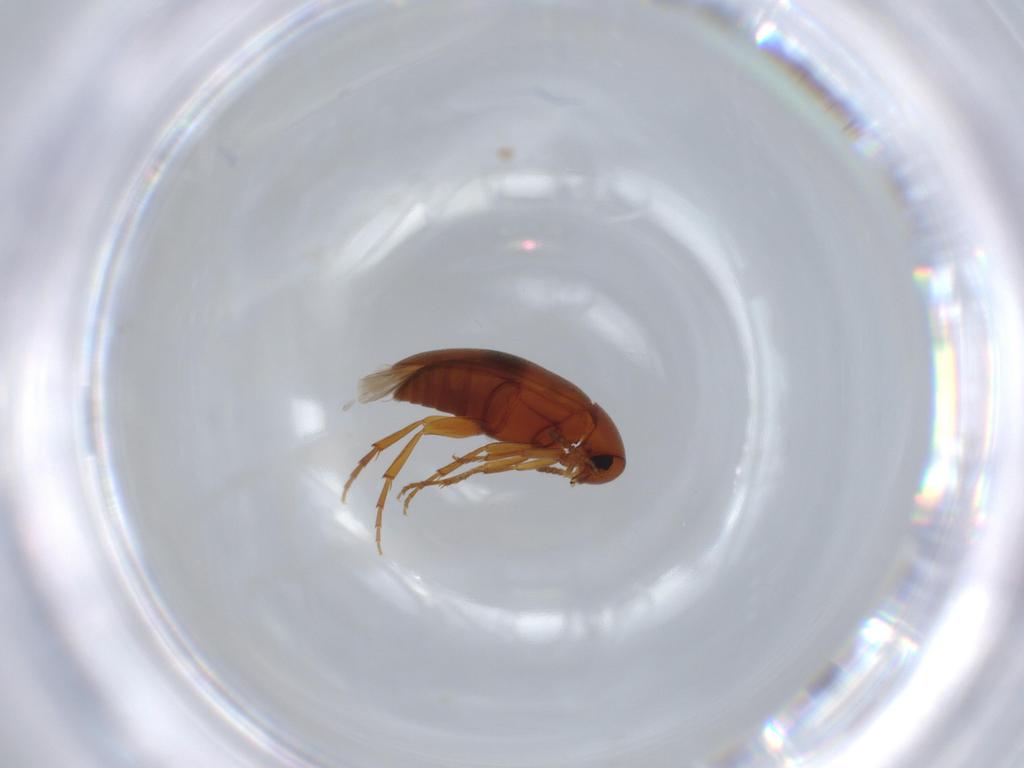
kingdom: Animalia
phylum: Arthropoda
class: Insecta
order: Coleoptera
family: Scraptiidae
